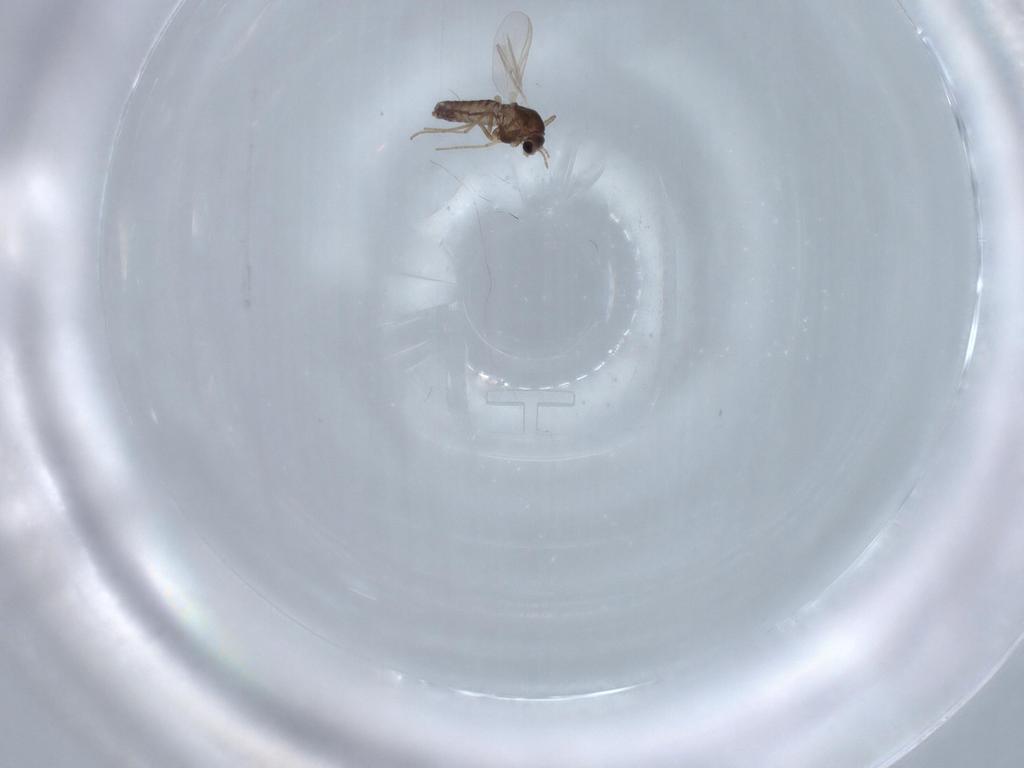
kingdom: Animalia
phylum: Arthropoda
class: Insecta
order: Diptera
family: Chironomidae
